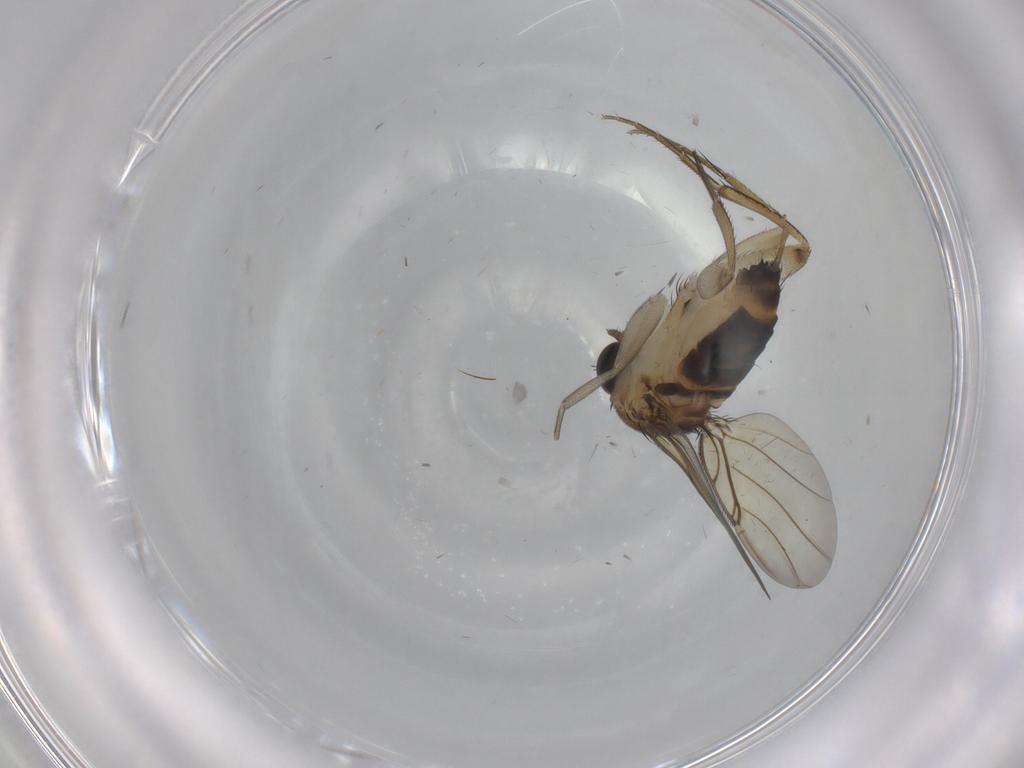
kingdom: Animalia
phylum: Arthropoda
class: Insecta
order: Diptera
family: Phoridae
